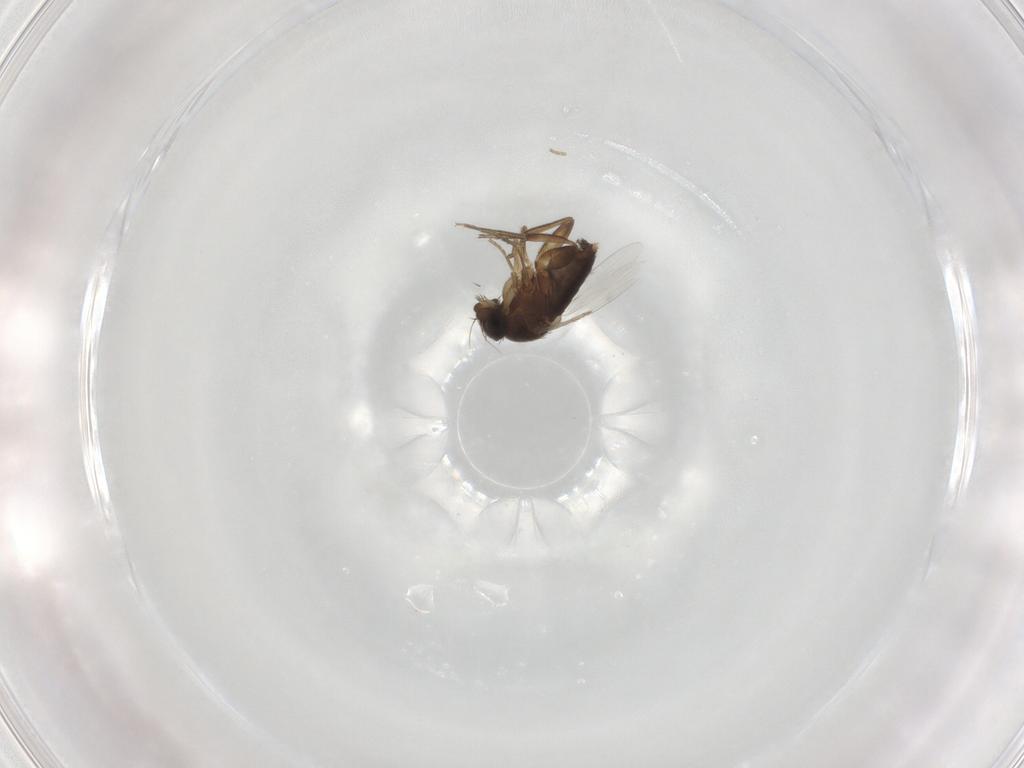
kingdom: Animalia
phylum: Arthropoda
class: Insecta
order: Diptera
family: Phoridae
